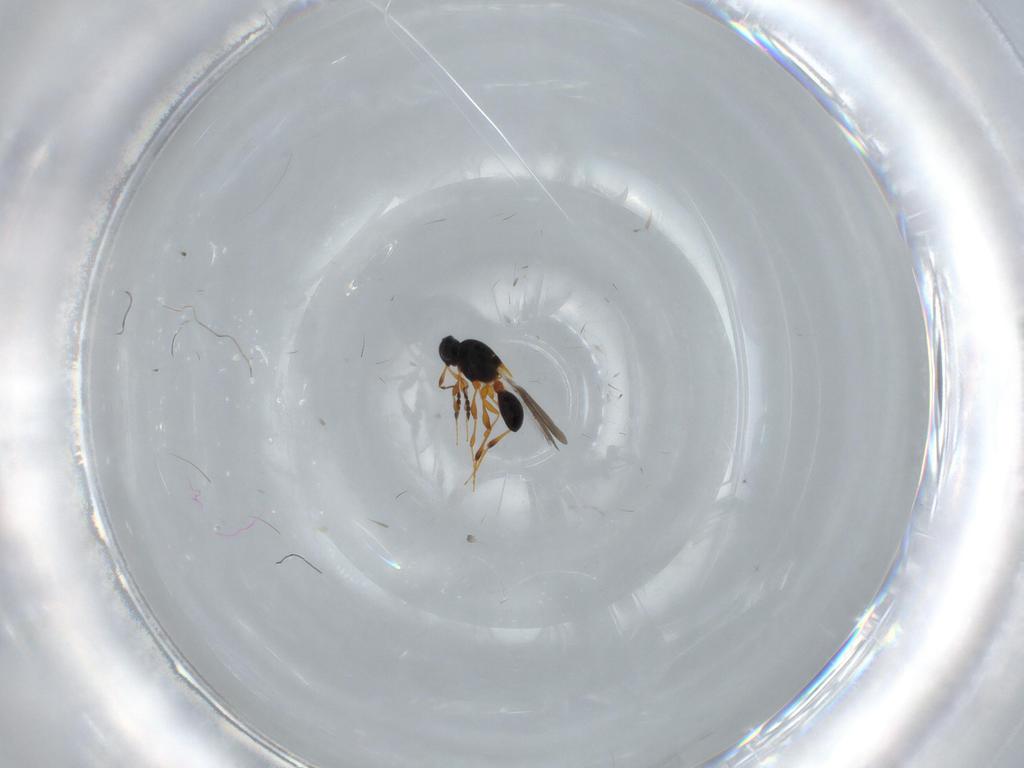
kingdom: Animalia
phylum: Arthropoda
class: Insecta
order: Hymenoptera
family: Platygastridae
